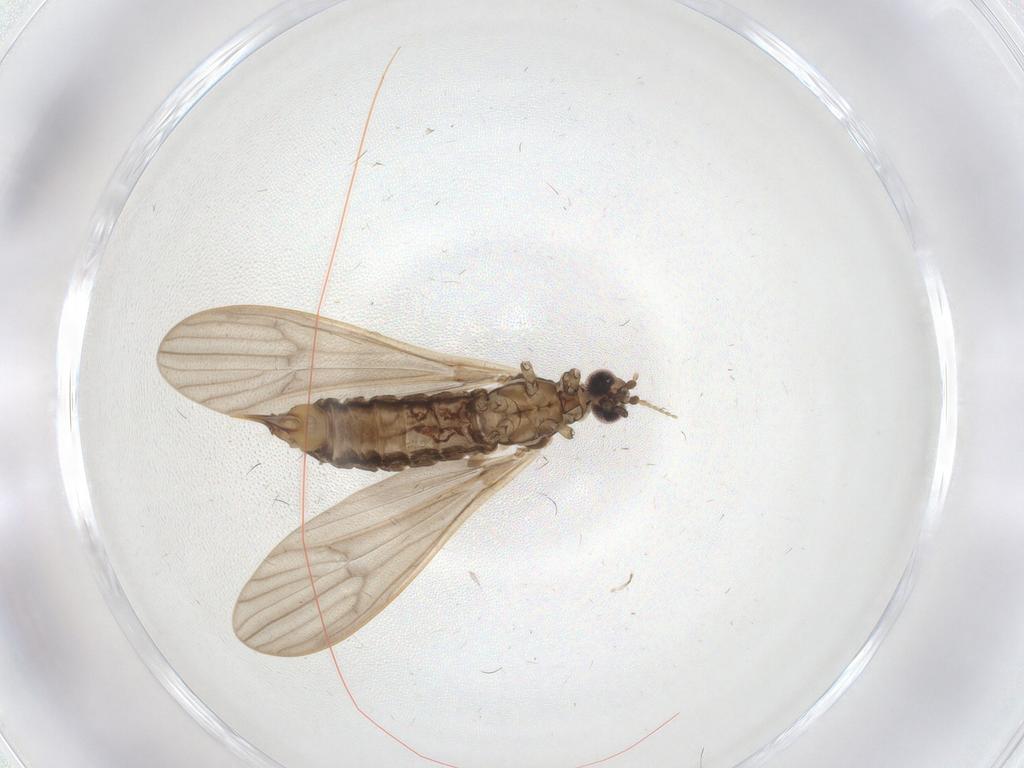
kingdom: Animalia
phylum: Arthropoda
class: Insecta
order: Diptera
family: Limoniidae
